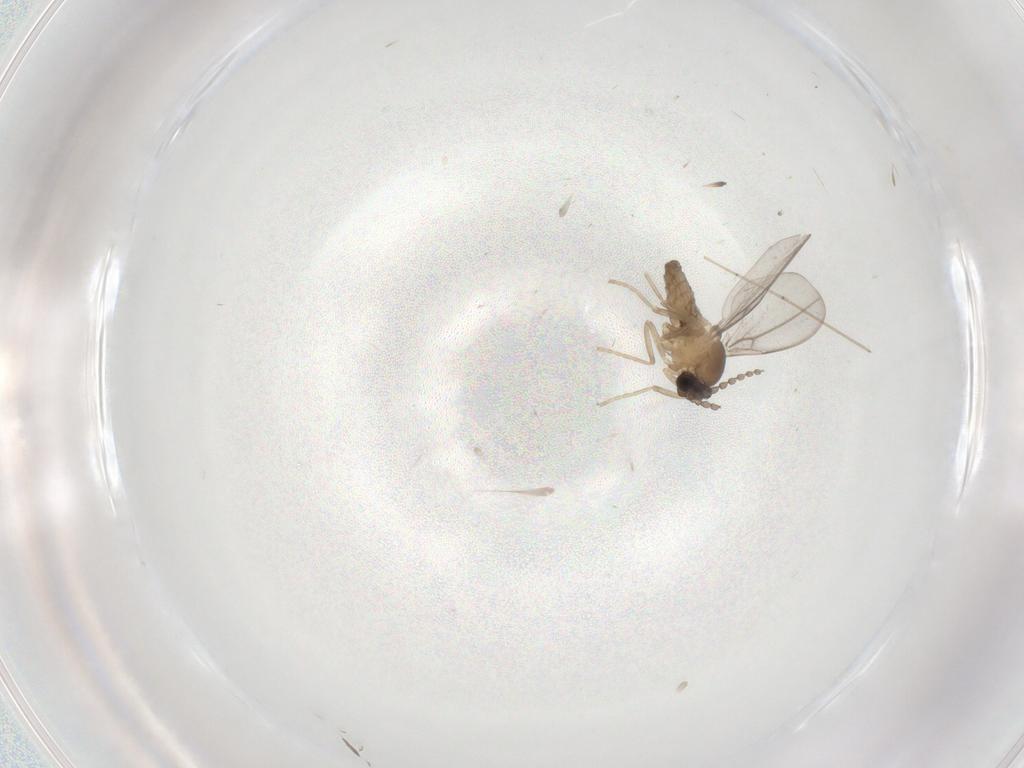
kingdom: Animalia
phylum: Arthropoda
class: Insecta
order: Diptera
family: Cecidomyiidae
